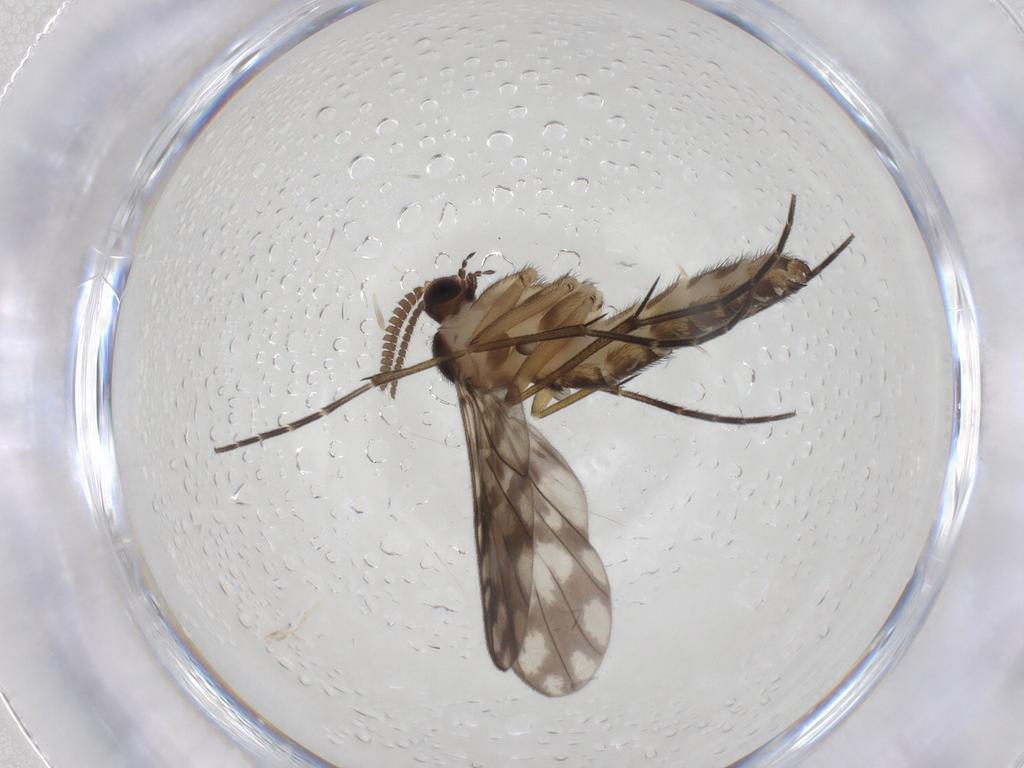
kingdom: Animalia
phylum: Arthropoda
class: Insecta
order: Diptera
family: Keroplatidae
